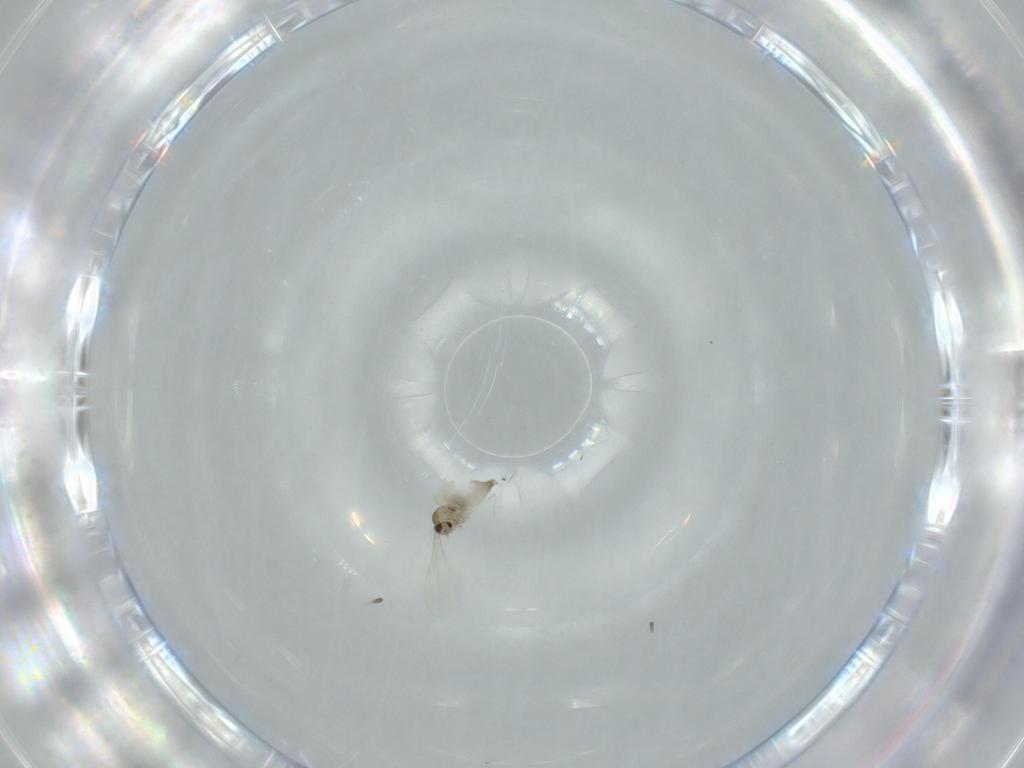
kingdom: Animalia
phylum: Arthropoda
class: Insecta
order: Diptera
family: Cecidomyiidae
